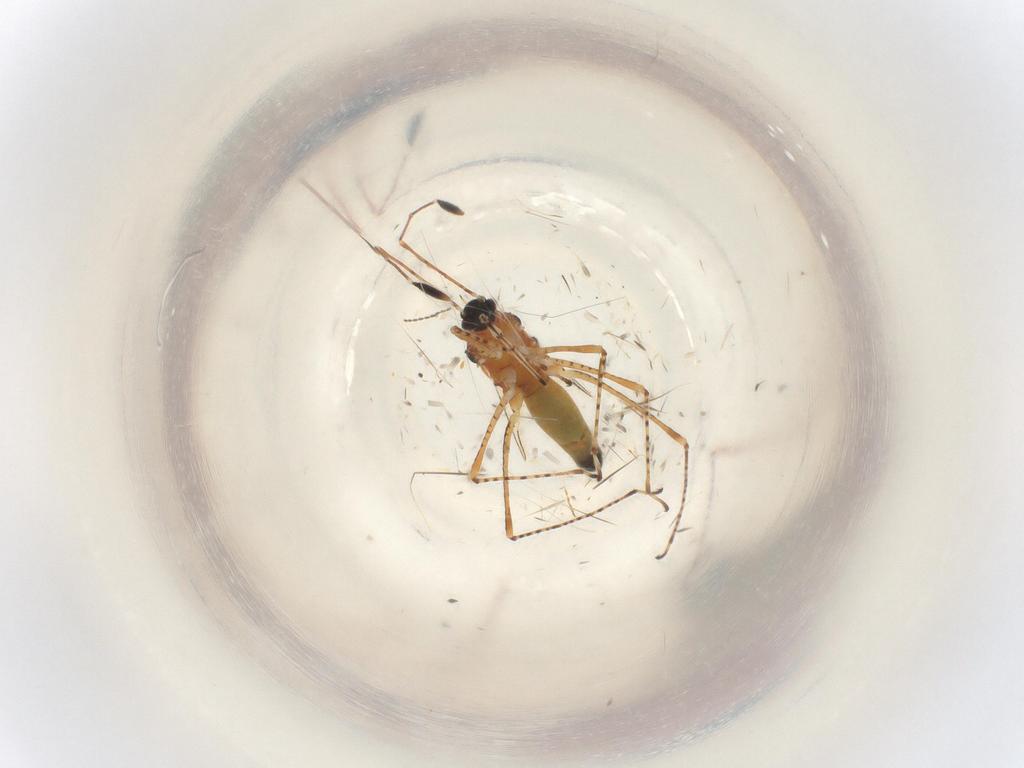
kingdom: Animalia
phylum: Arthropoda
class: Insecta
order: Diptera
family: Cecidomyiidae
